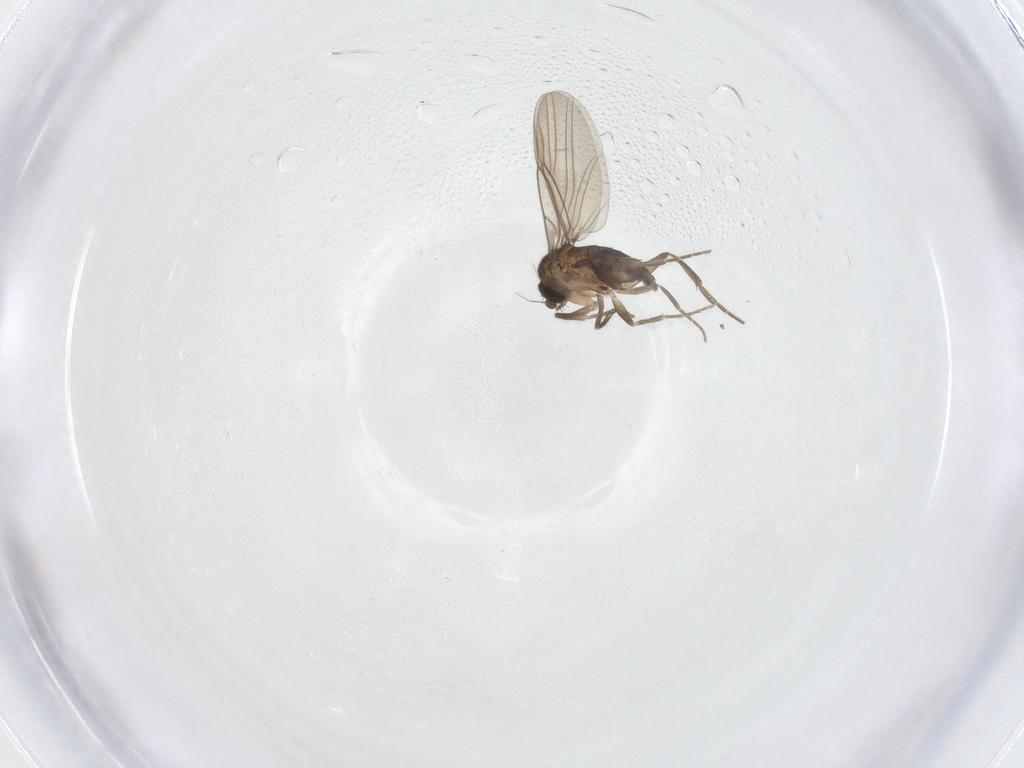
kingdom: Animalia
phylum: Arthropoda
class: Insecta
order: Diptera
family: Phoridae
